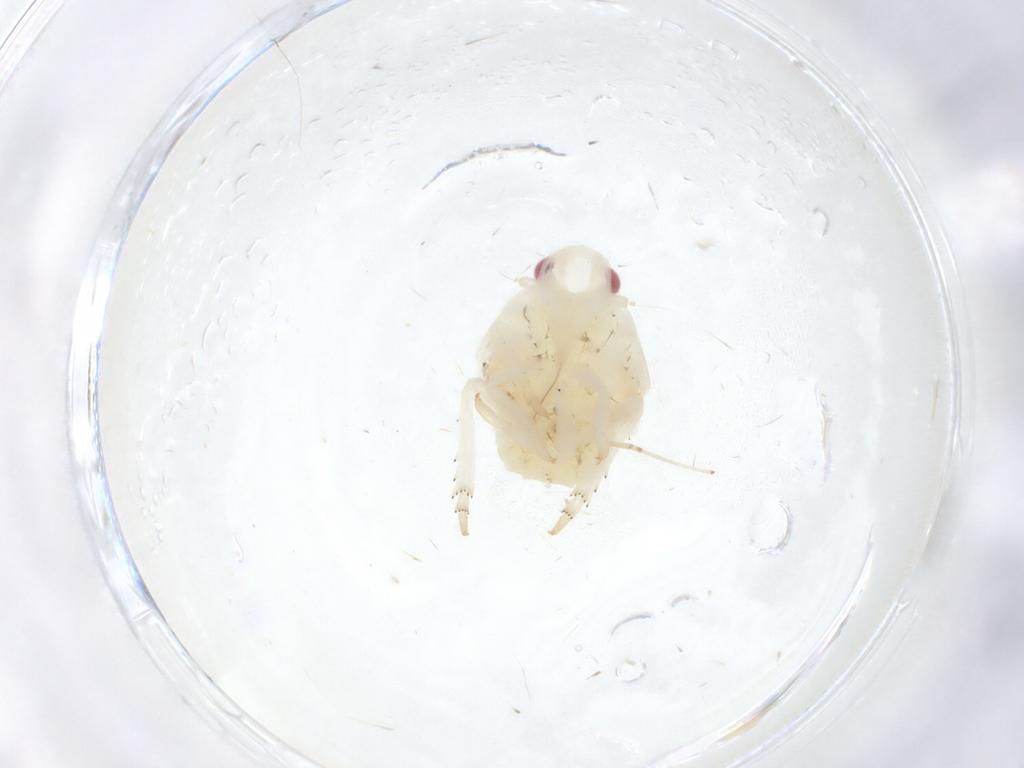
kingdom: Animalia
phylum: Arthropoda
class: Insecta
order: Hemiptera
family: Flatidae
